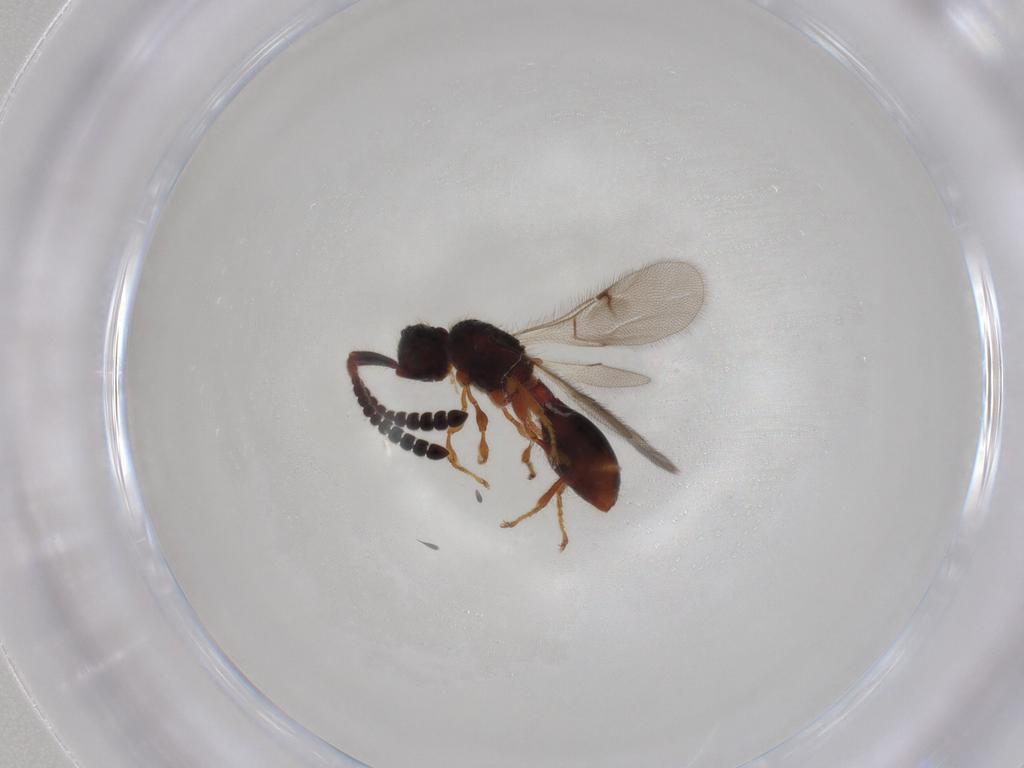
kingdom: Animalia
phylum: Arthropoda
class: Insecta
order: Hymenoptera
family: Diapriidae
